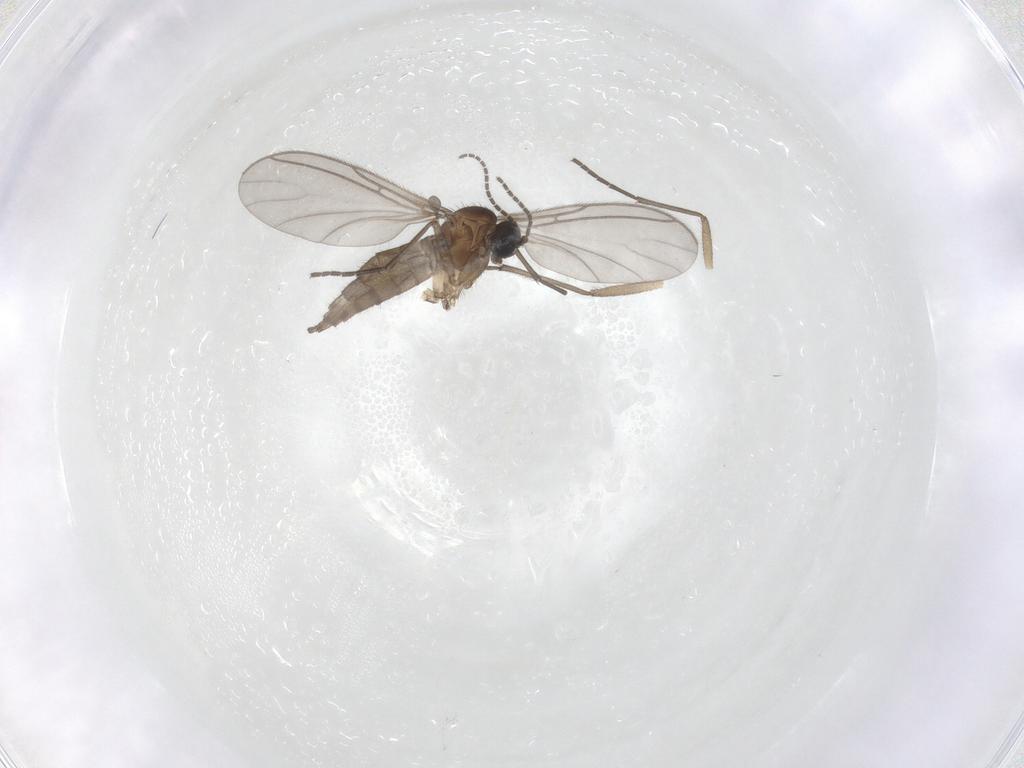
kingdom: Animalia
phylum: Arthropoda
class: Insecta
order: Diptera
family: Sciaridae
